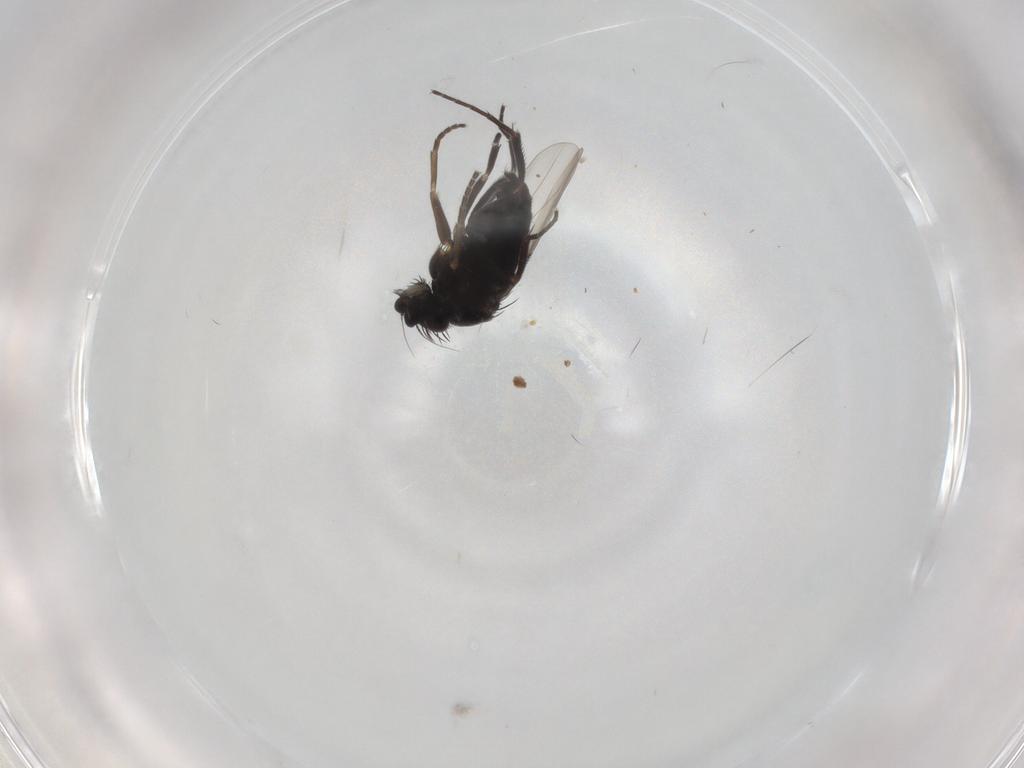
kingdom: Animalia
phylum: Arthropoda
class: Insecta
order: Diptera
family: Phoridae
